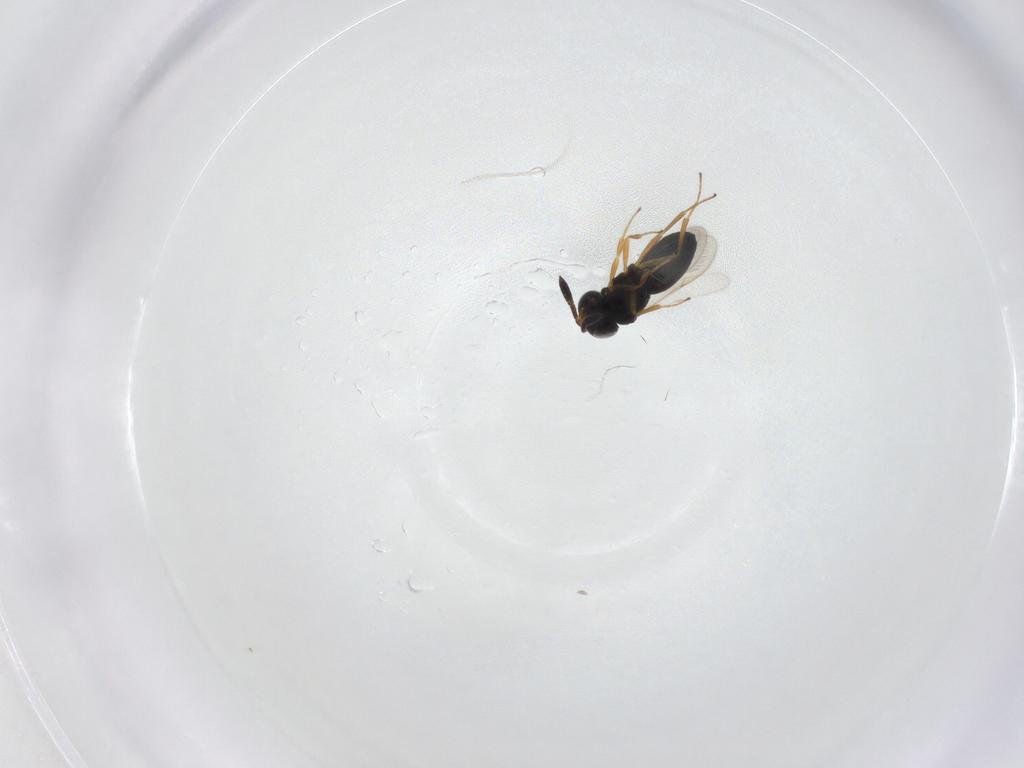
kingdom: Animalia
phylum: Arthropoda
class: Insecta
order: Hymenoptera
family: Scelionidae
